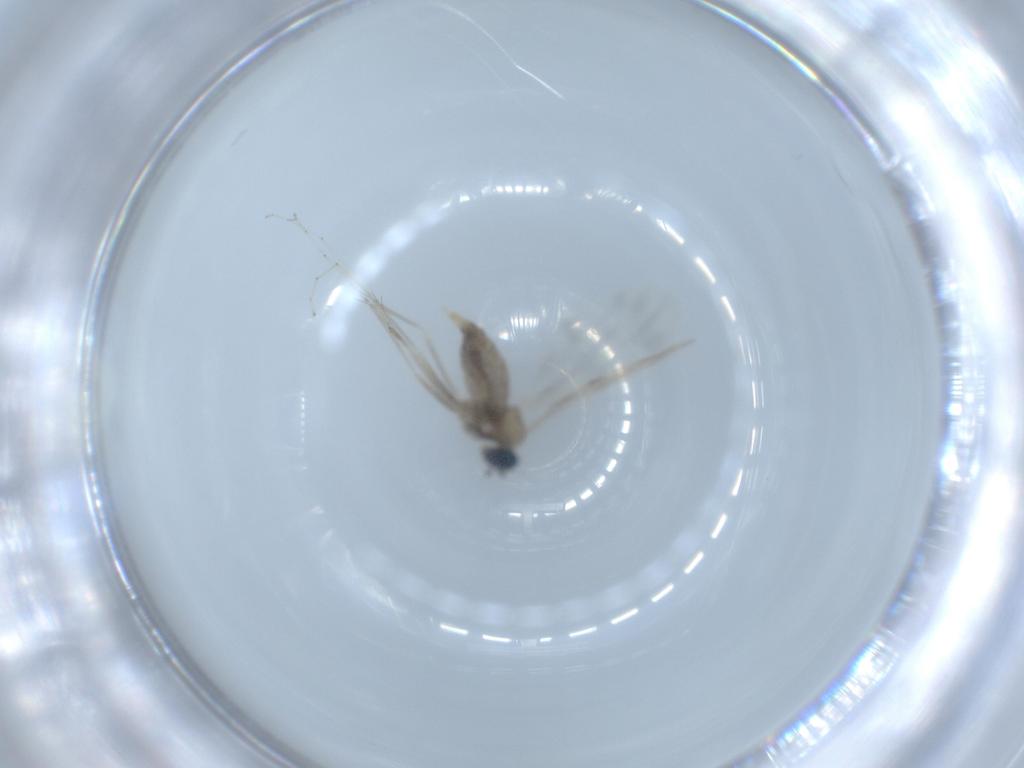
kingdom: Animalia
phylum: Arthropoda
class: Insecta
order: Diptera
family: Cecidomyiidae
